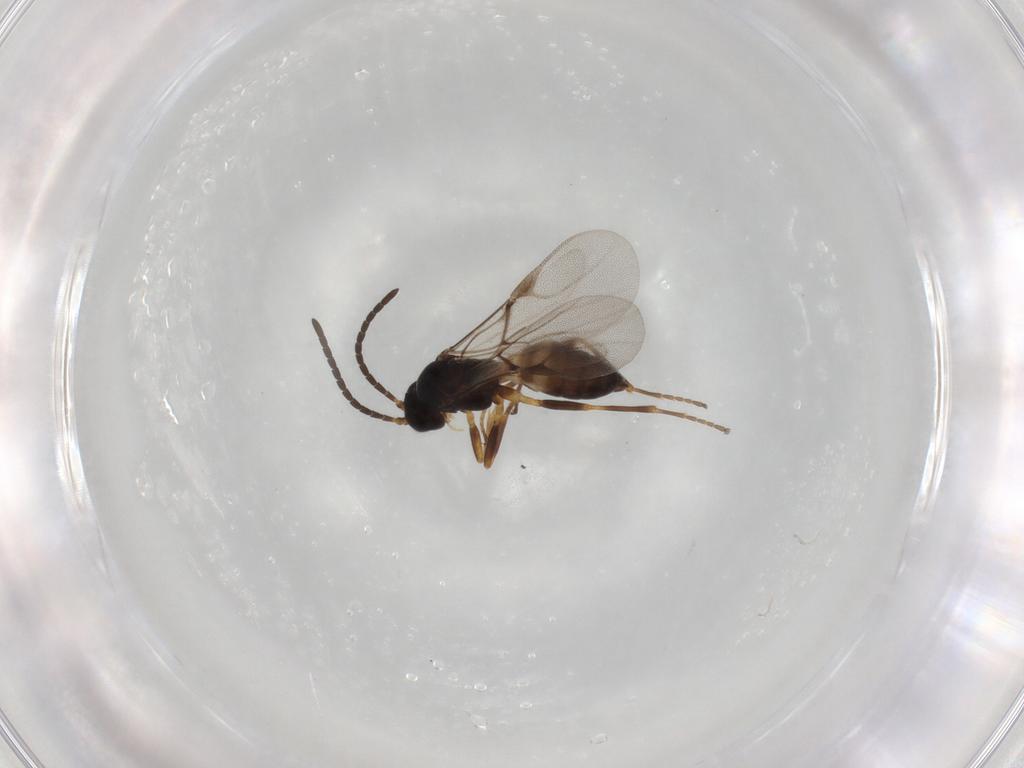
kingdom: Animalia
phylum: Arthropoda
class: Insecta
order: Hymenoptera
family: Braconidae
